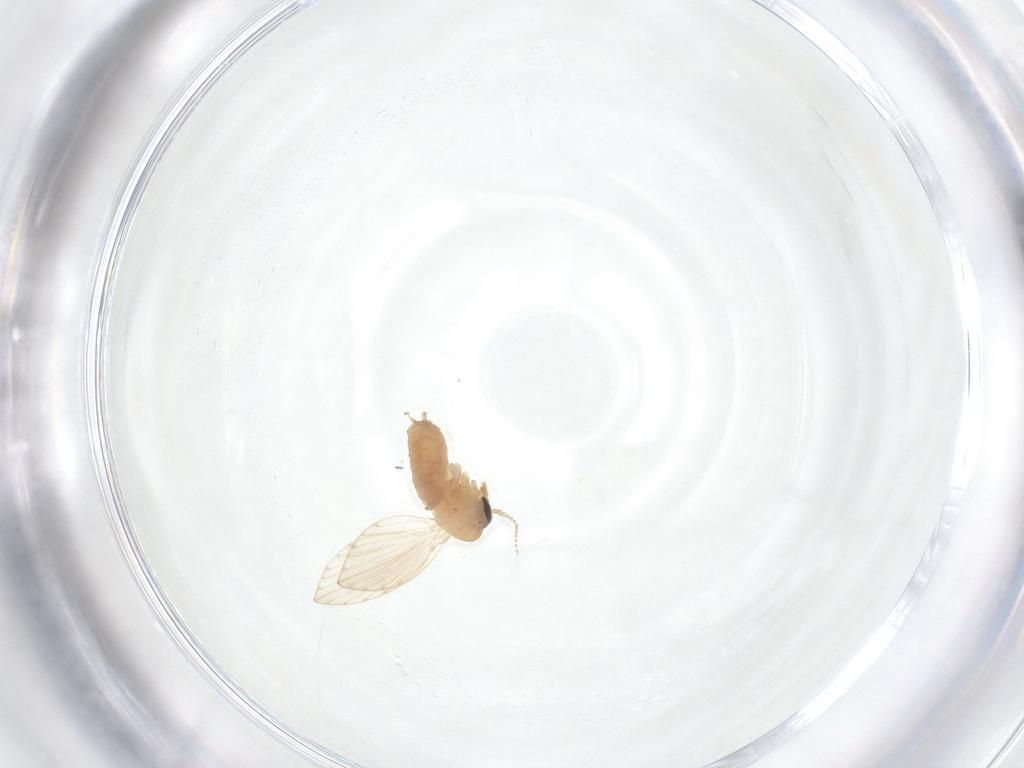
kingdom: Animalia
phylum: Arthropoda
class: Insecta
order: Diptera
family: Psychodidae
